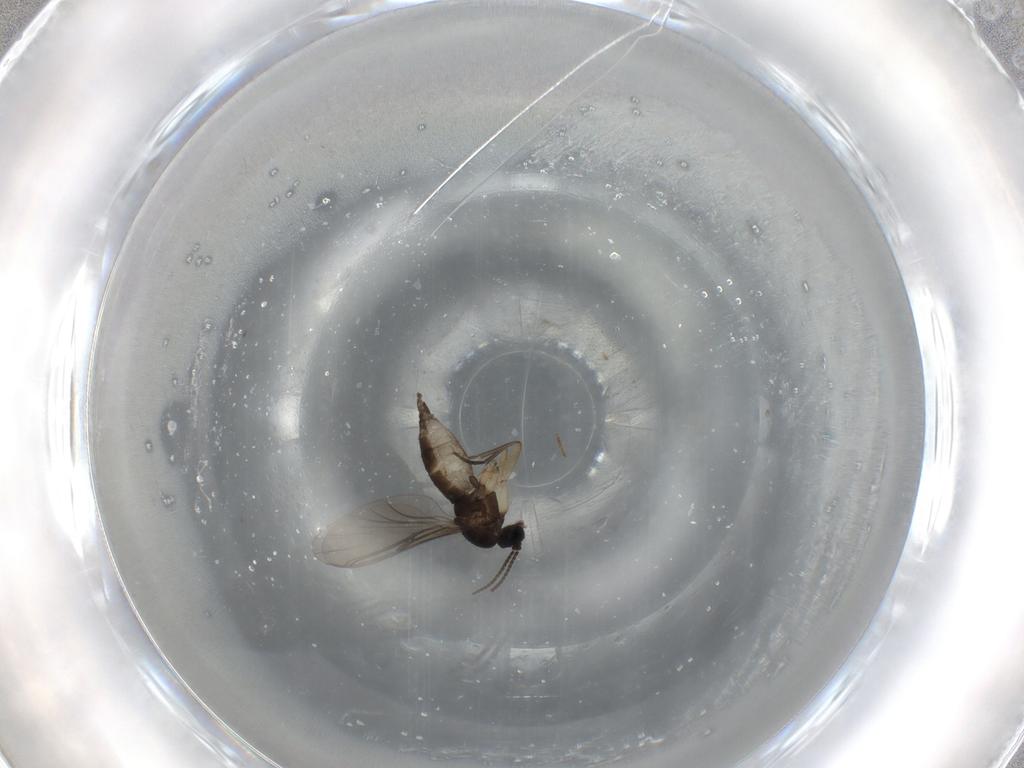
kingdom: Animalia
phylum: Arthropoda
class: Insecta
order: Diptera
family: Sciaridae
